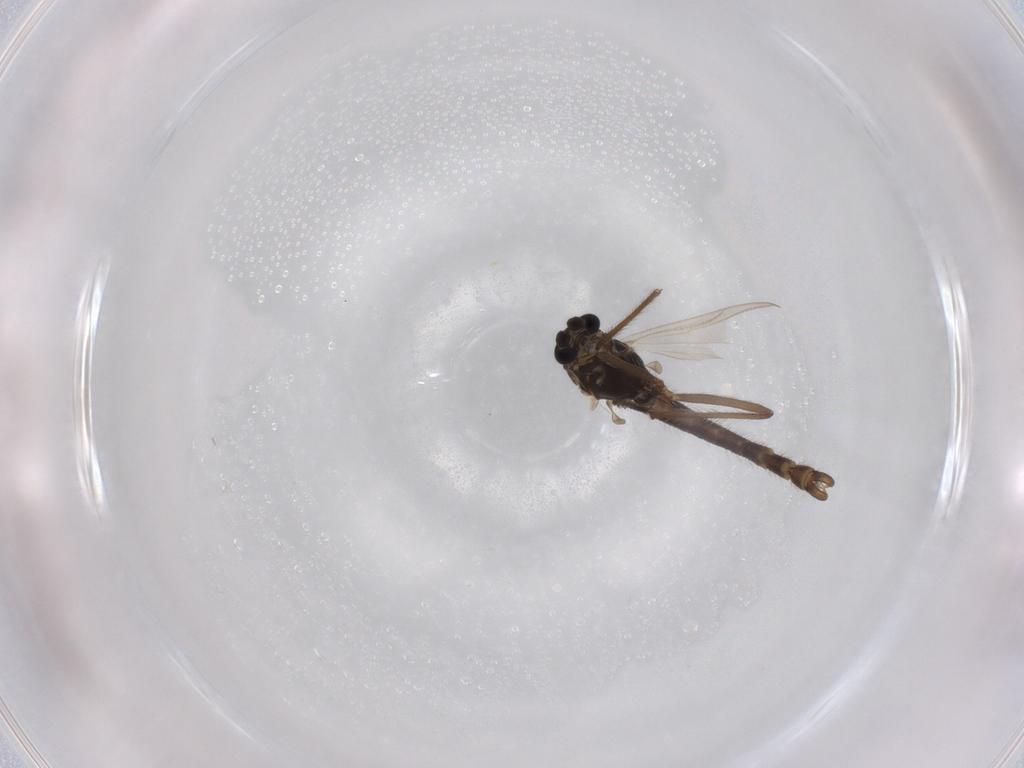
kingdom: Animalia
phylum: Arthropoda
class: Insecta
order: Diptera
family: Chironomidae
